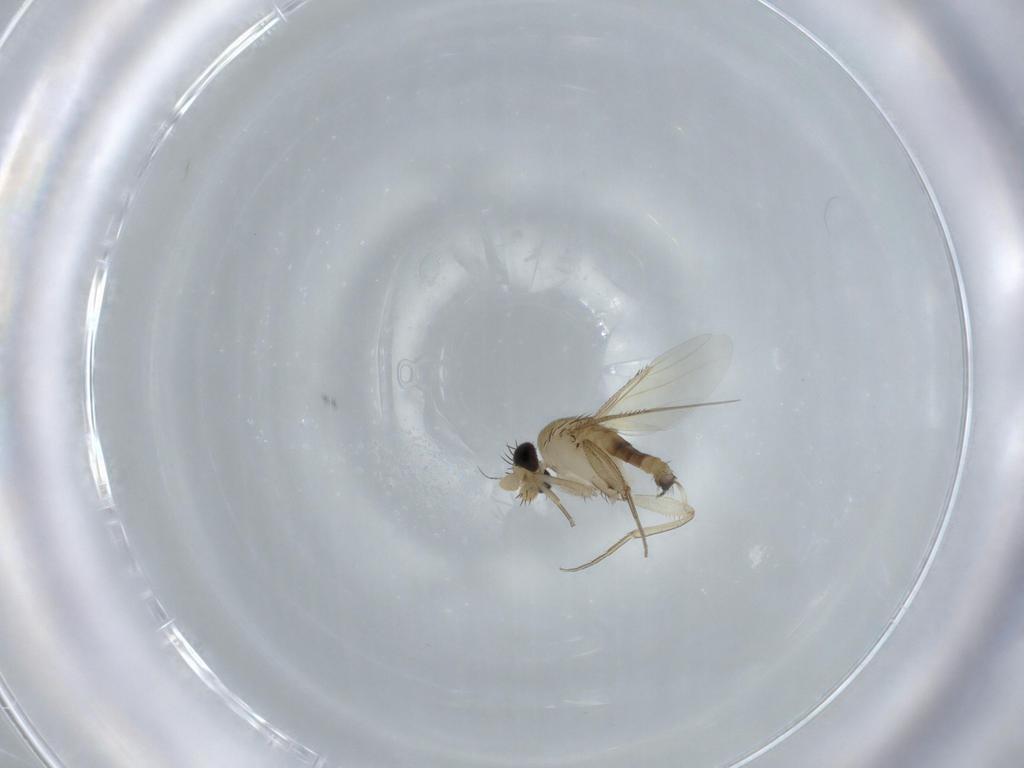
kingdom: Animalia
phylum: Arthropoda
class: Insecta
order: Diptera
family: Phoridae
